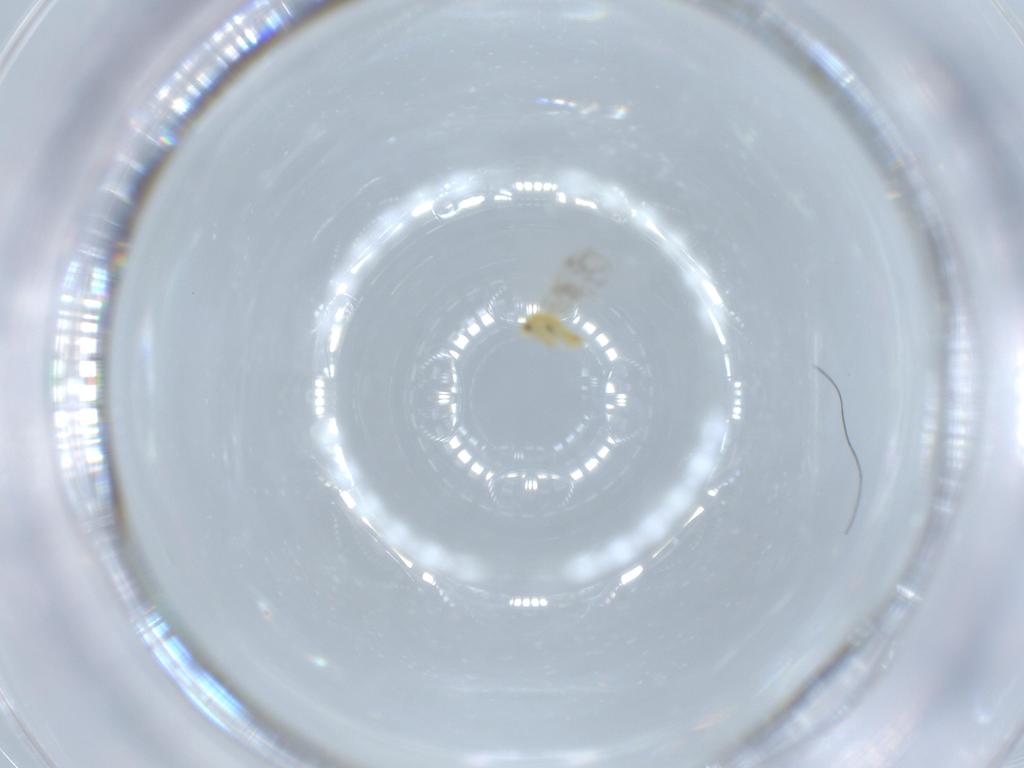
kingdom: Animalia
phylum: Arthropoda
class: Insecta
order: Hemiptera
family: Aleyrodidae
